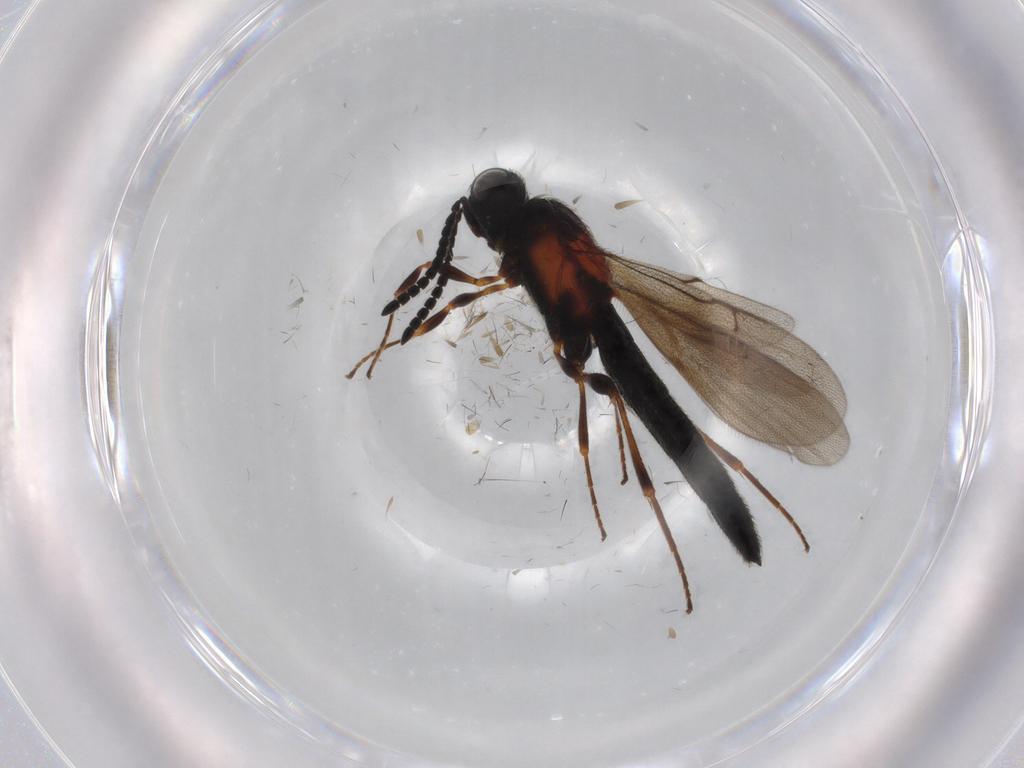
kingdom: Animalia
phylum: Arthropoda
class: Insecta
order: Hymenoptera
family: Scelionidae
